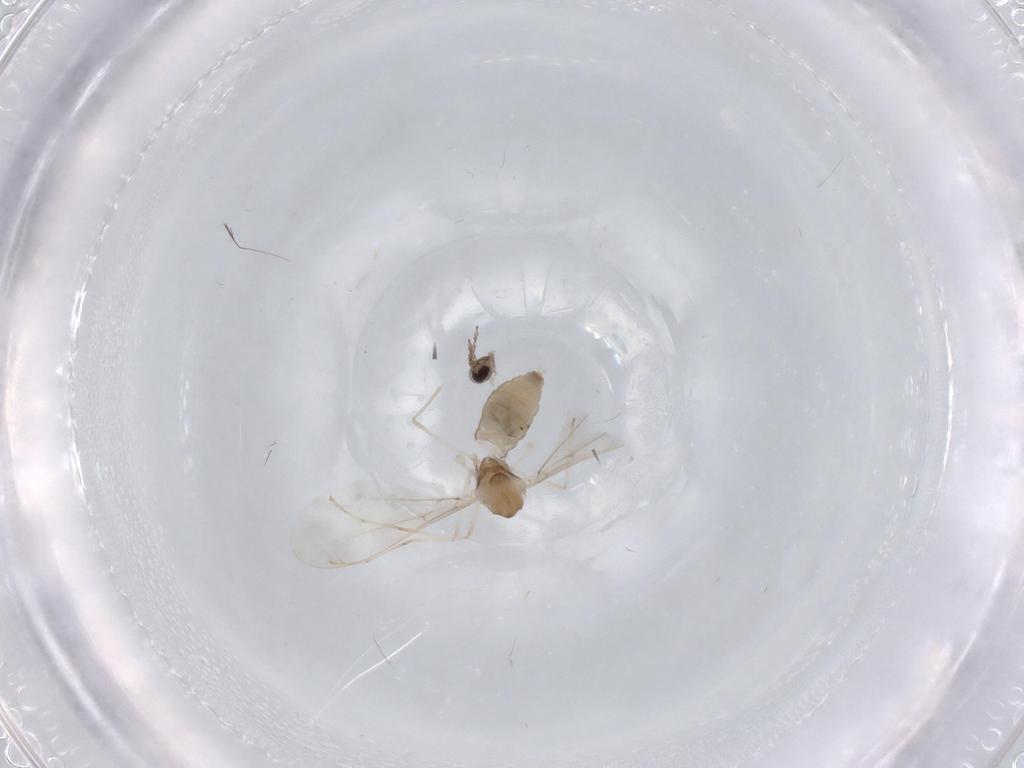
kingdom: Animalia
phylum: Arthropoda
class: Insecta
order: Diptera
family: Cecidomyiidae
